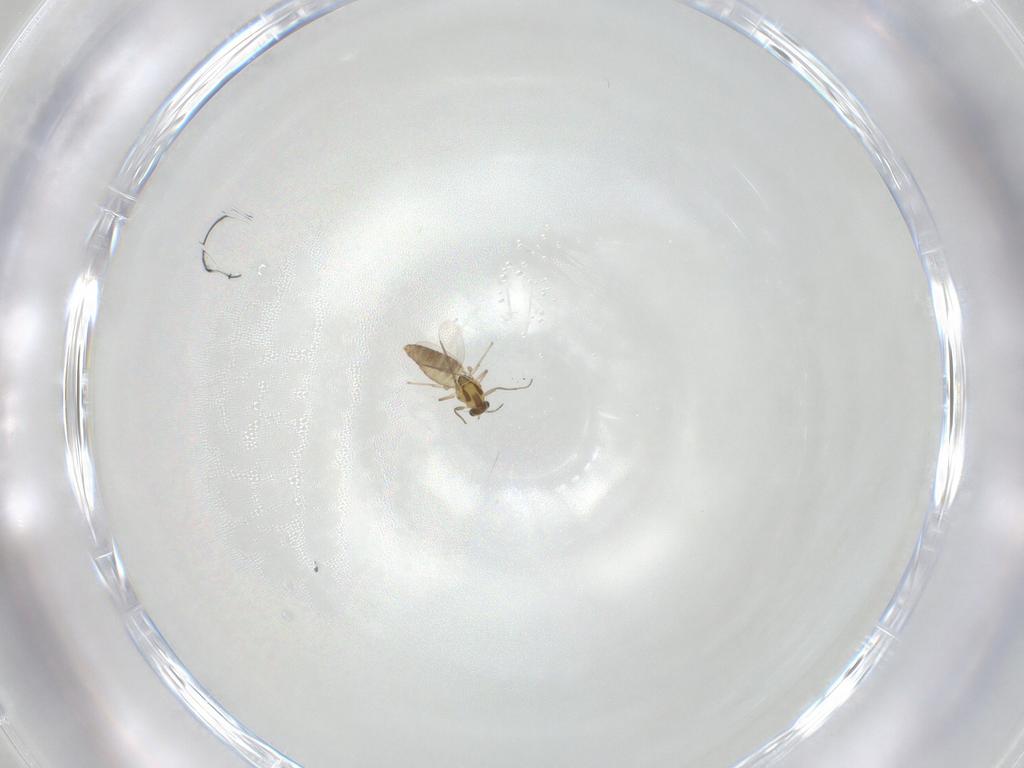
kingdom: Animalia
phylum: Arthropoda
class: Insecta
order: Diptera
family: Chironomidae
